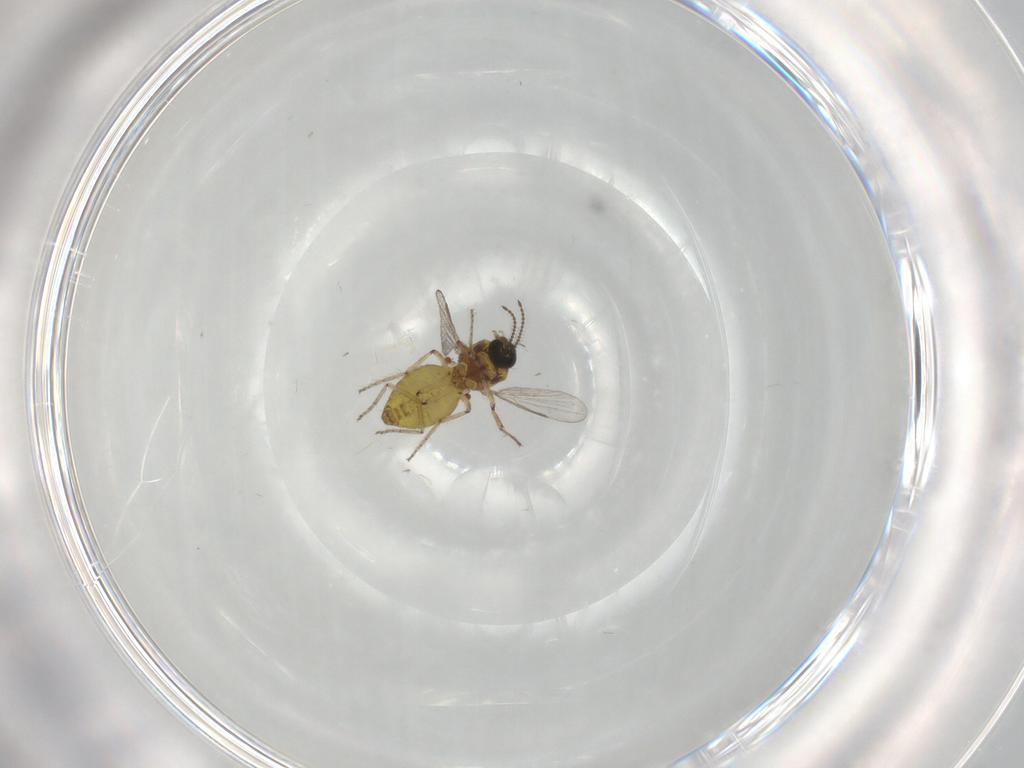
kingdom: Animalia
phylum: Arthropoda
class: Insecta
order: Diptera
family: Ceratopogonidae
